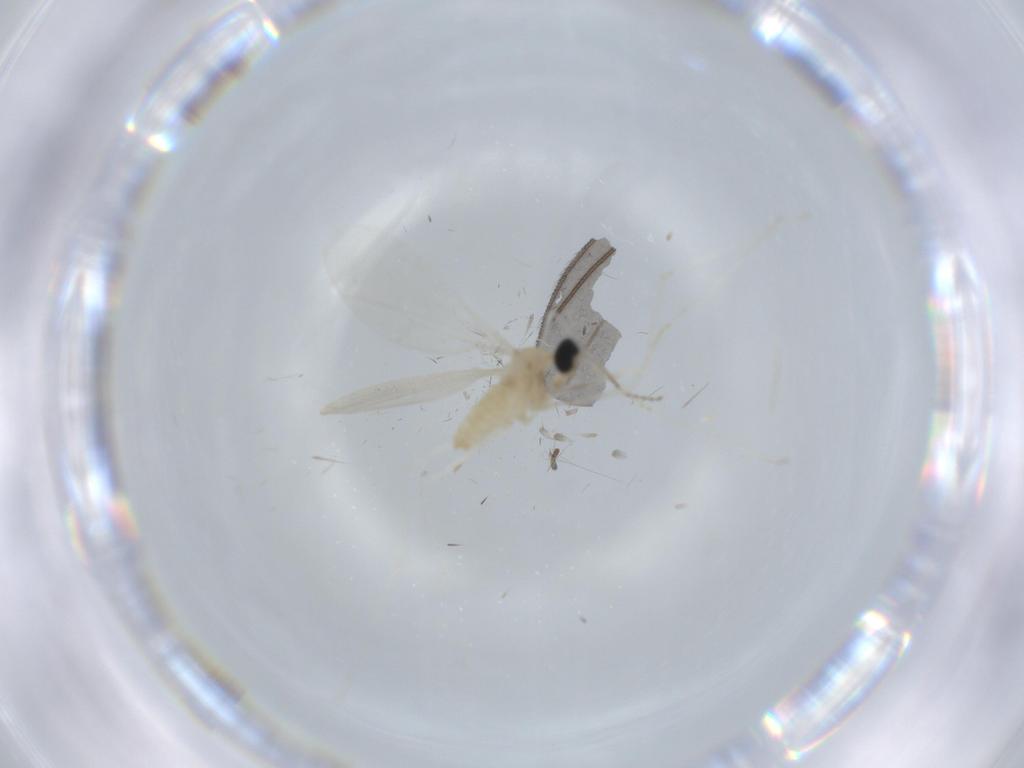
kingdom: Animalia
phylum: Arthropoda
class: Insecta
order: Diptera
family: Cecidomyiidae
